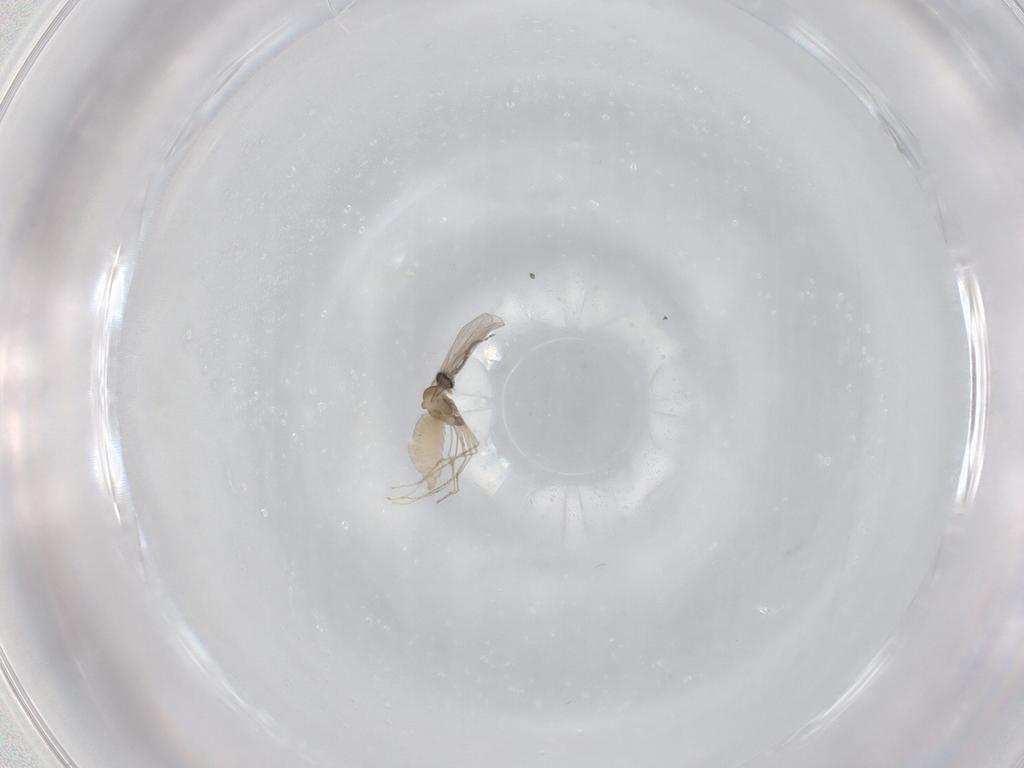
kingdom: Animalia
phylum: Arthropoda
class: Insecta
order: Diptera
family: Cecidomyiidae
